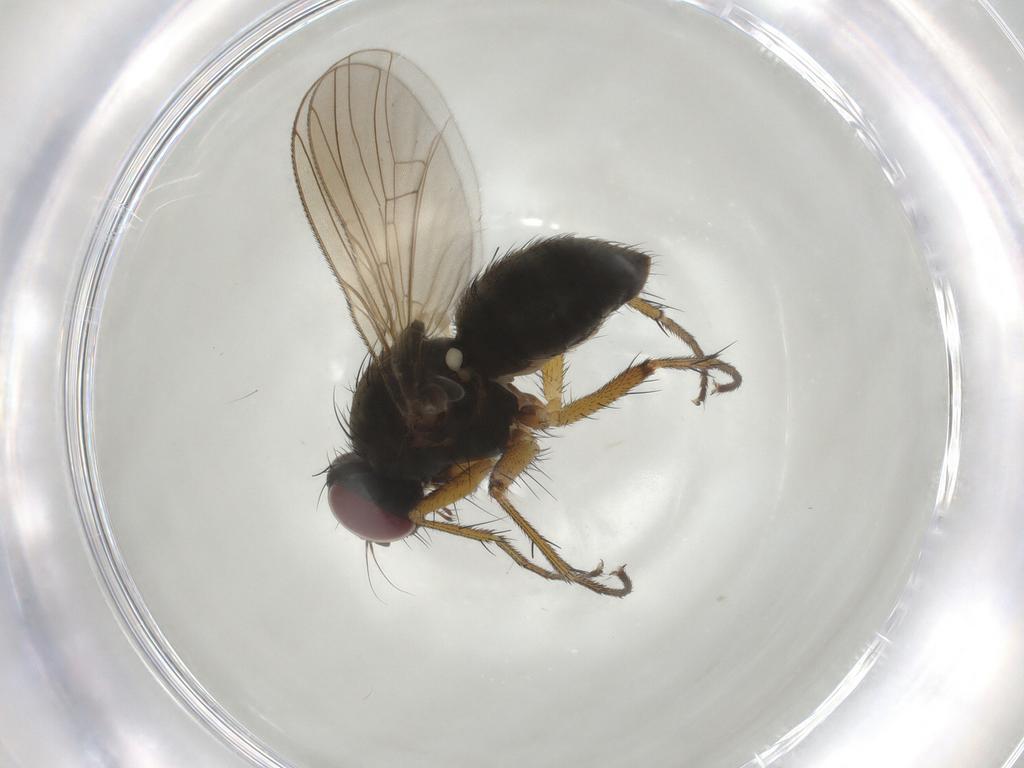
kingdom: Animalia
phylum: Arthropoda
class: Insecta
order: Diptera
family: Muscidae
